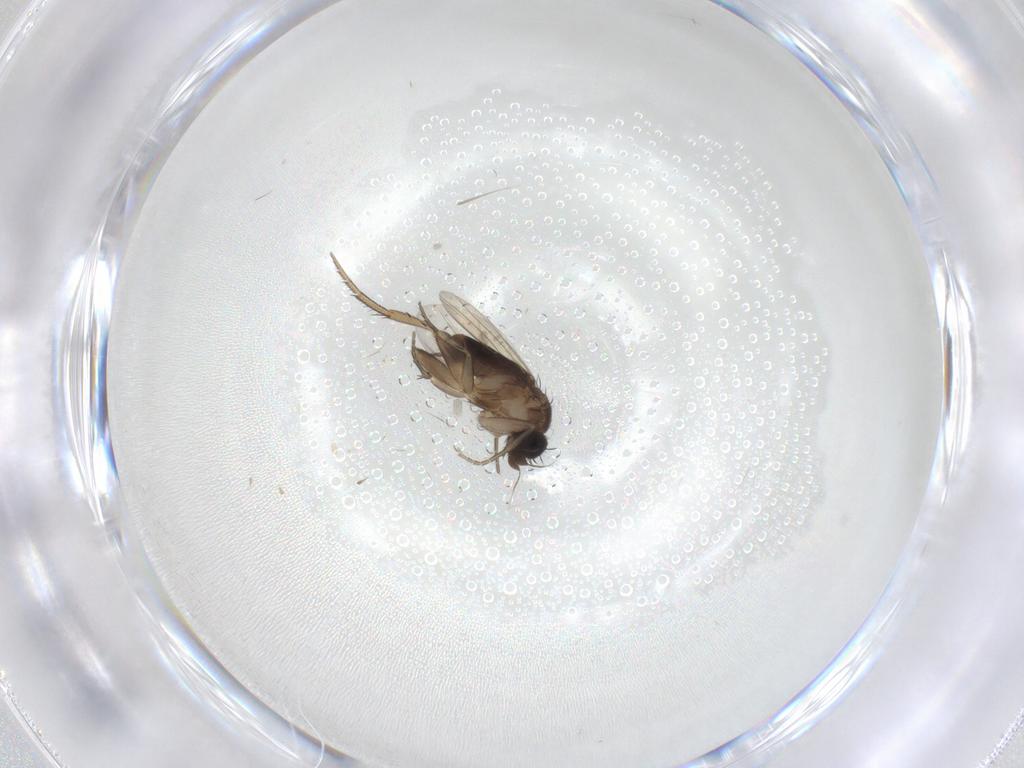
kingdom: Animalia
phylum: Arthropoda
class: Insecta
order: Diptera
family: Phoridae
